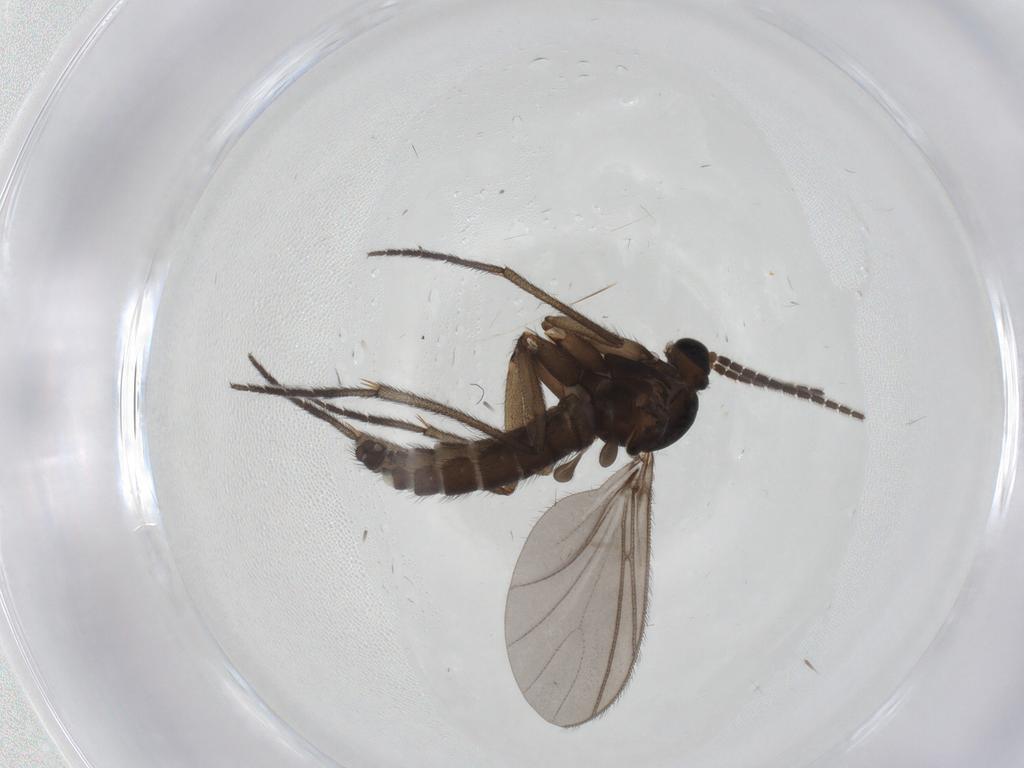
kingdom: Animalia
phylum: Arthropoda
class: Insecta
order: Diptera
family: Sciaridae
